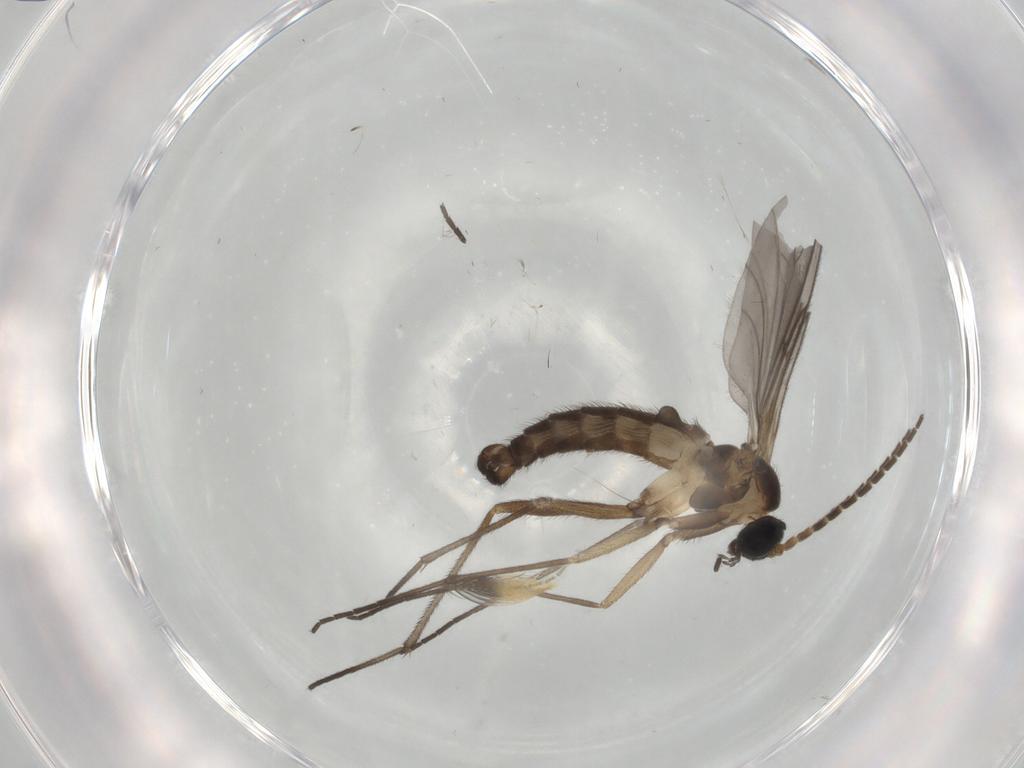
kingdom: Animalia
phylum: Arthropoda
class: Insecta
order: Diptera
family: Sciaridae
